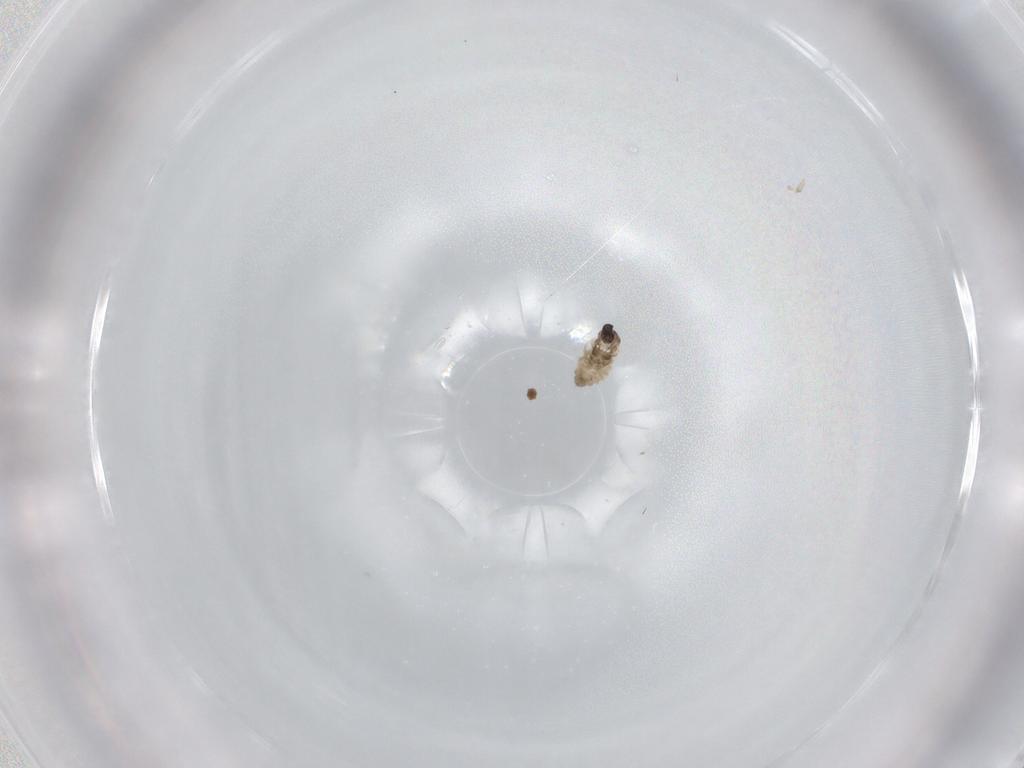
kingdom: Animalia
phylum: Arthropoda
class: Insecta
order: Diptera
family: Cecidomyiidae
